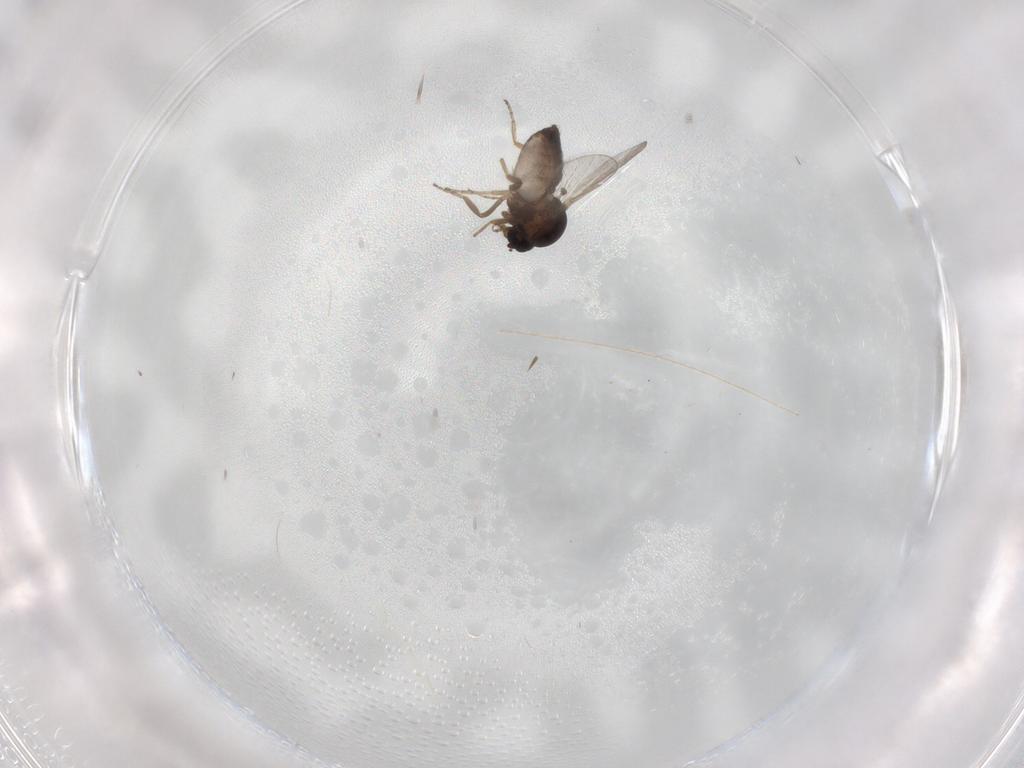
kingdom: Animalia
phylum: Arthropoda
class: Insecta
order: Diptera
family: Ceratopogonidae
